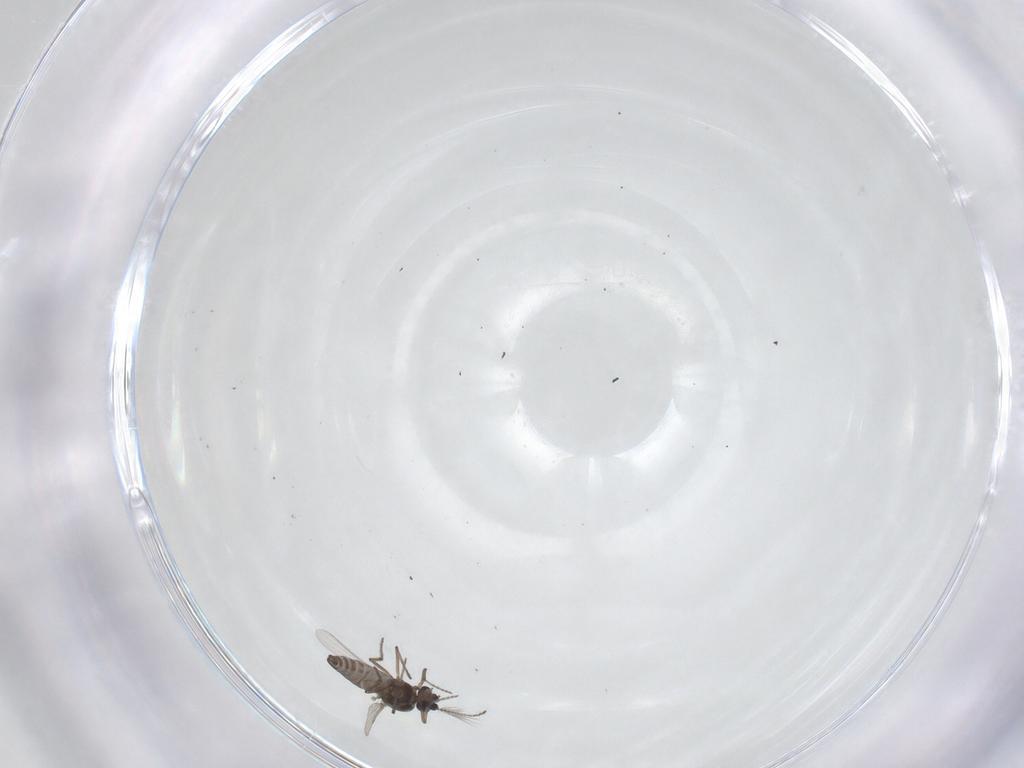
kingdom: Animalia
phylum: Arthropoda
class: Insecta
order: Diptera
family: Ceratopogonidae
